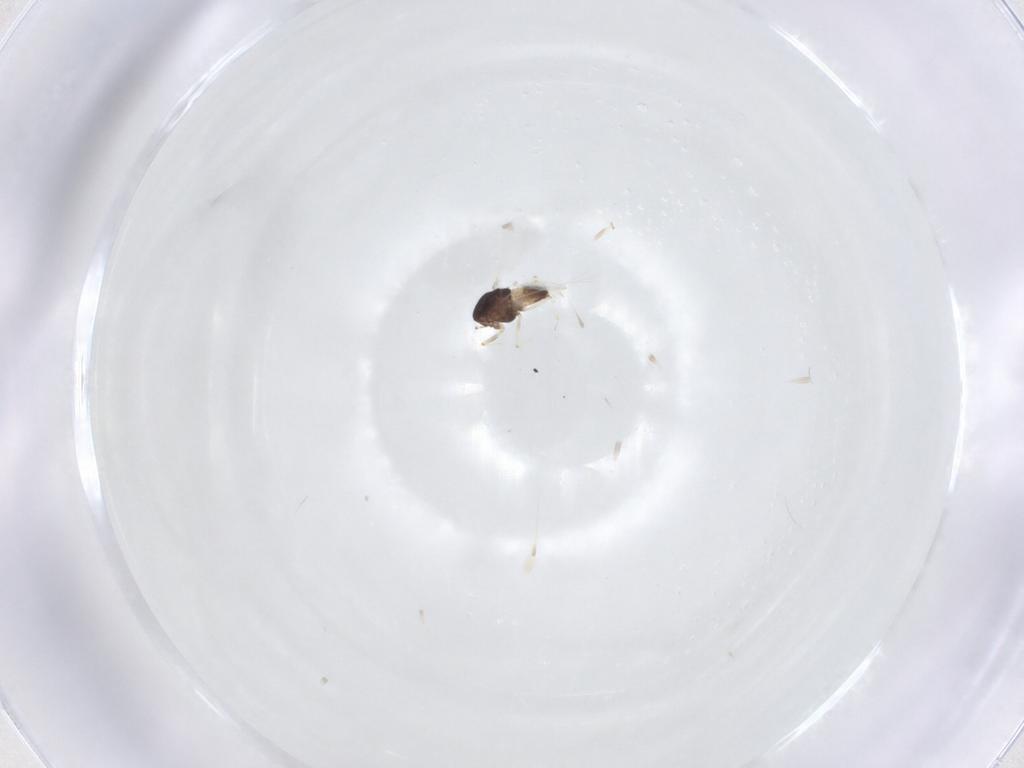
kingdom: Animalia
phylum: Arthropoda
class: Insecta
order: Diptera
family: Chironomidae
